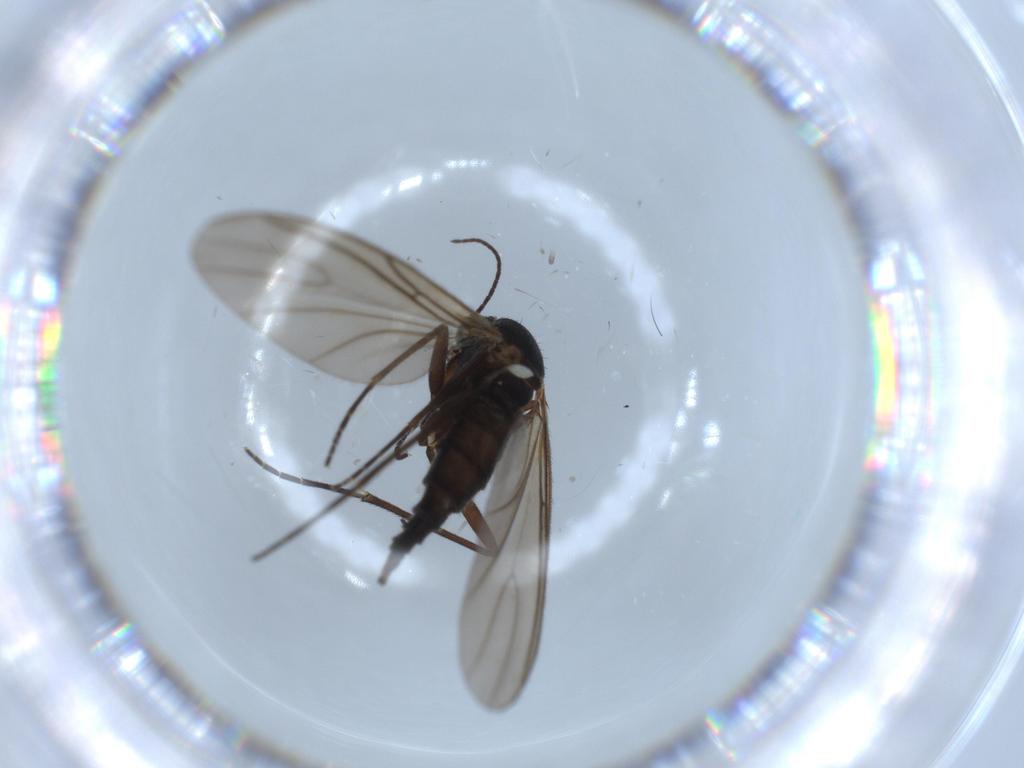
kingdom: Animalia
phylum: Arthropoda
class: Insecta
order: Diptera
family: Sciaridae
